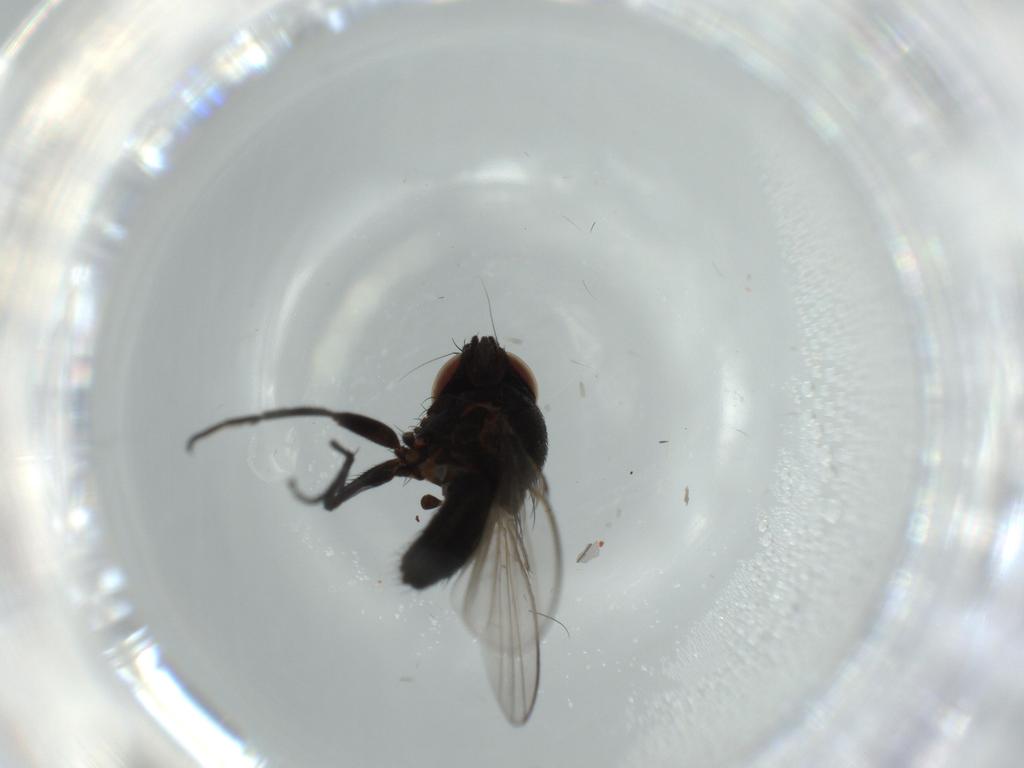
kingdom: Animalia
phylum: Arthropoda
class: Insecta
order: Diptera
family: Milichiidae
